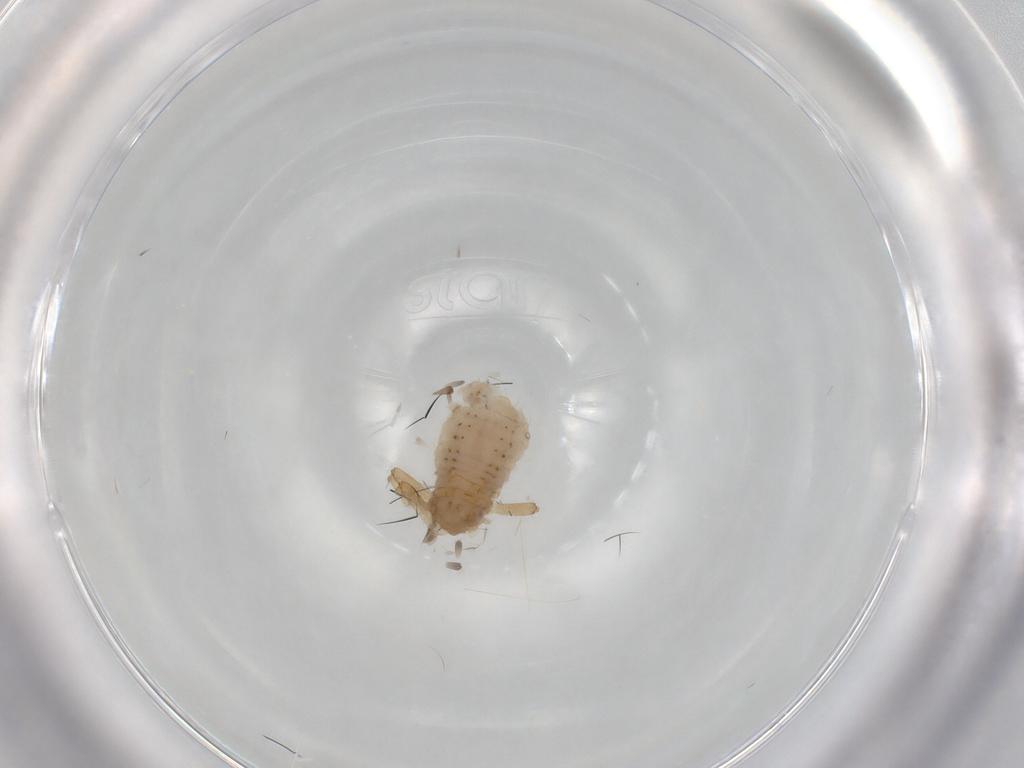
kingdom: Animalia
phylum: Arthropoda
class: Insecta
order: Hemiptera
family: Aphididae
